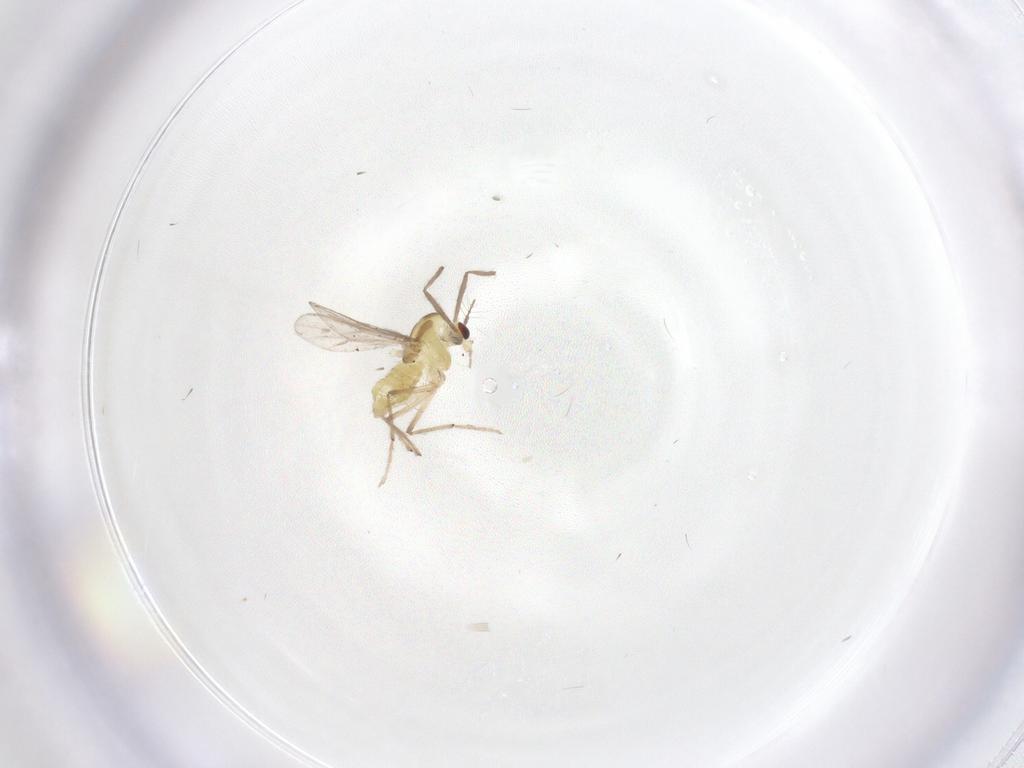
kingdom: Animalia
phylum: Arthropoda
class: Insecta
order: Diptera
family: Chironomidae
